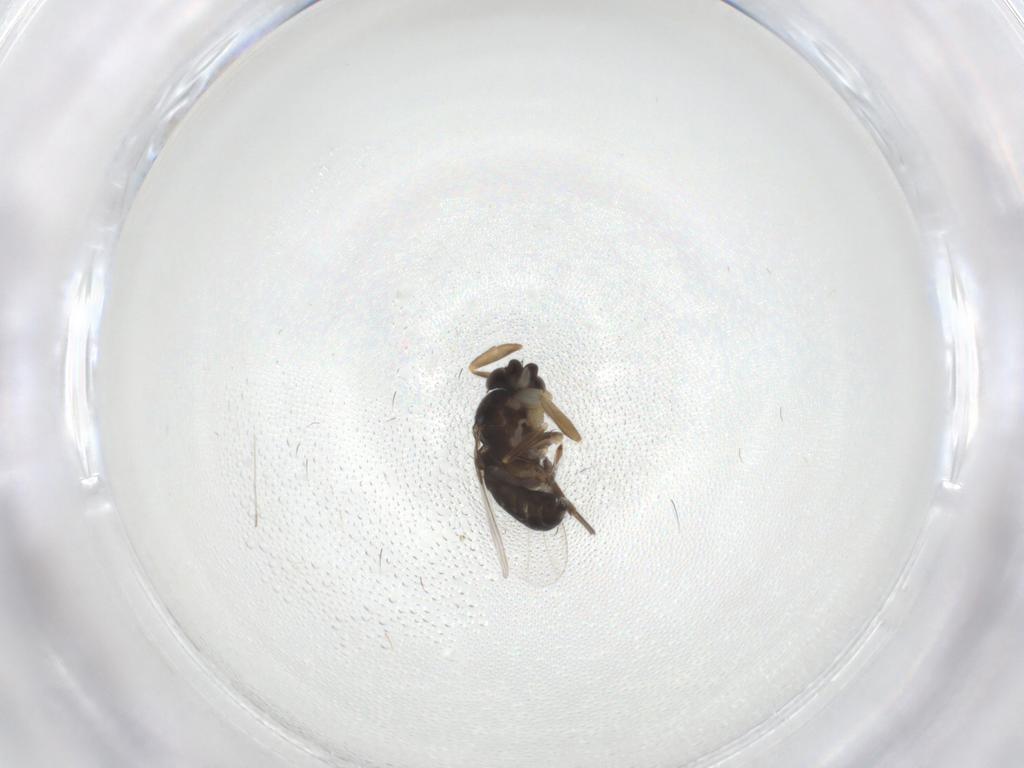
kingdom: Animalia
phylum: Arthropoda
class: Insecta
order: Diptera
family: Phoridae
